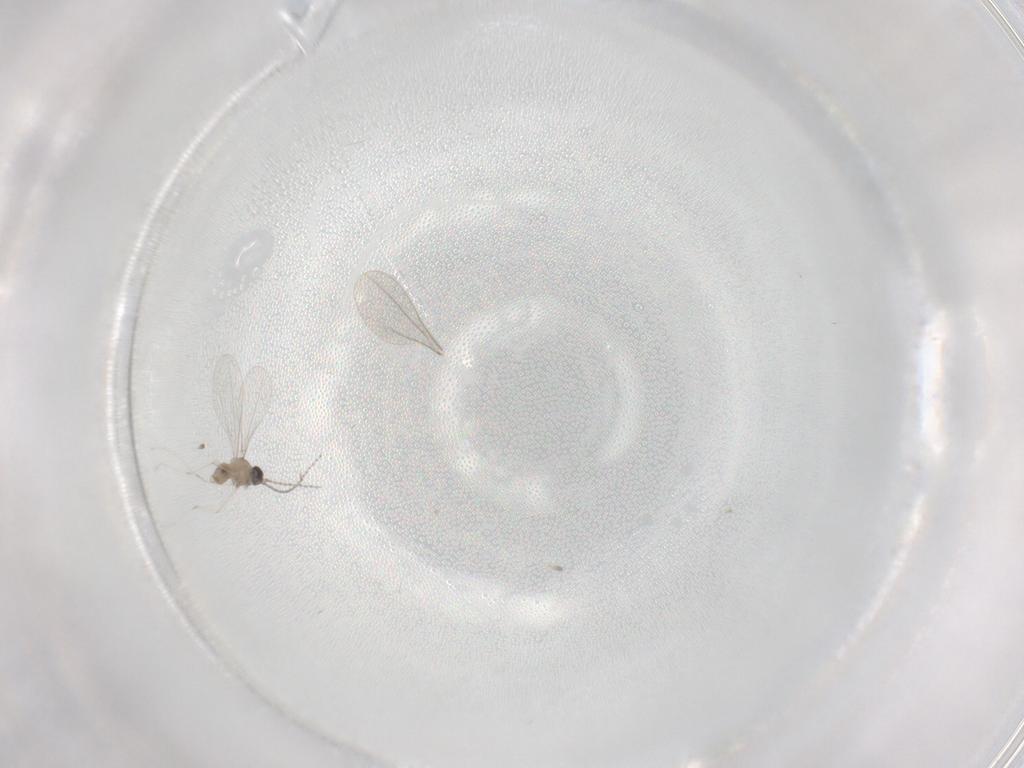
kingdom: Animalia
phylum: Arthropoda
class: Insecta
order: Diptera
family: Cecidomyiidae
